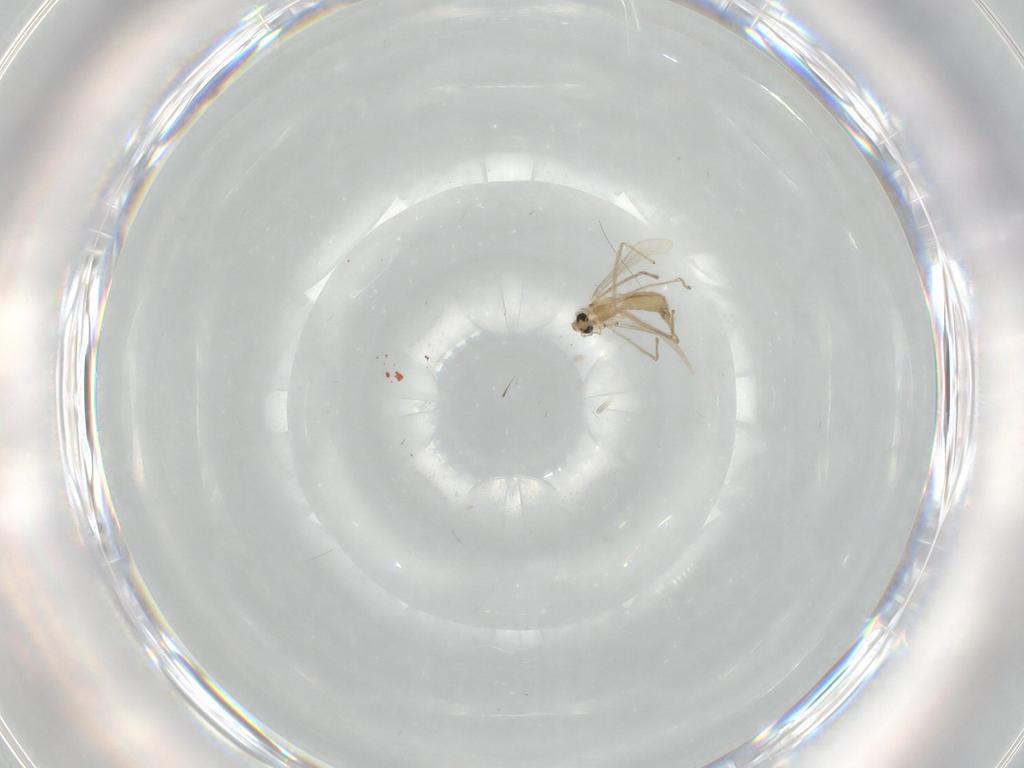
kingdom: Animalia
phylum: Arthropoda
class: Insecta
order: Diptera
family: Chironomidae
